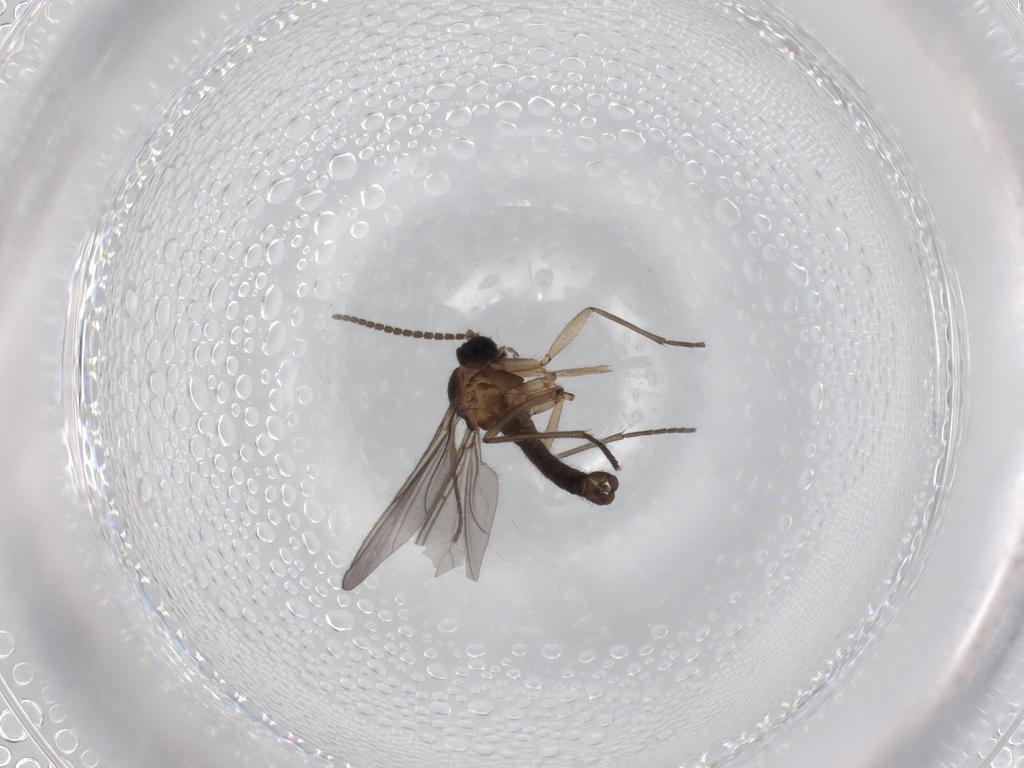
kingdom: Animalia
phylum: Arthropoda
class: Insecta
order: Diptera
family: Sciaridae
